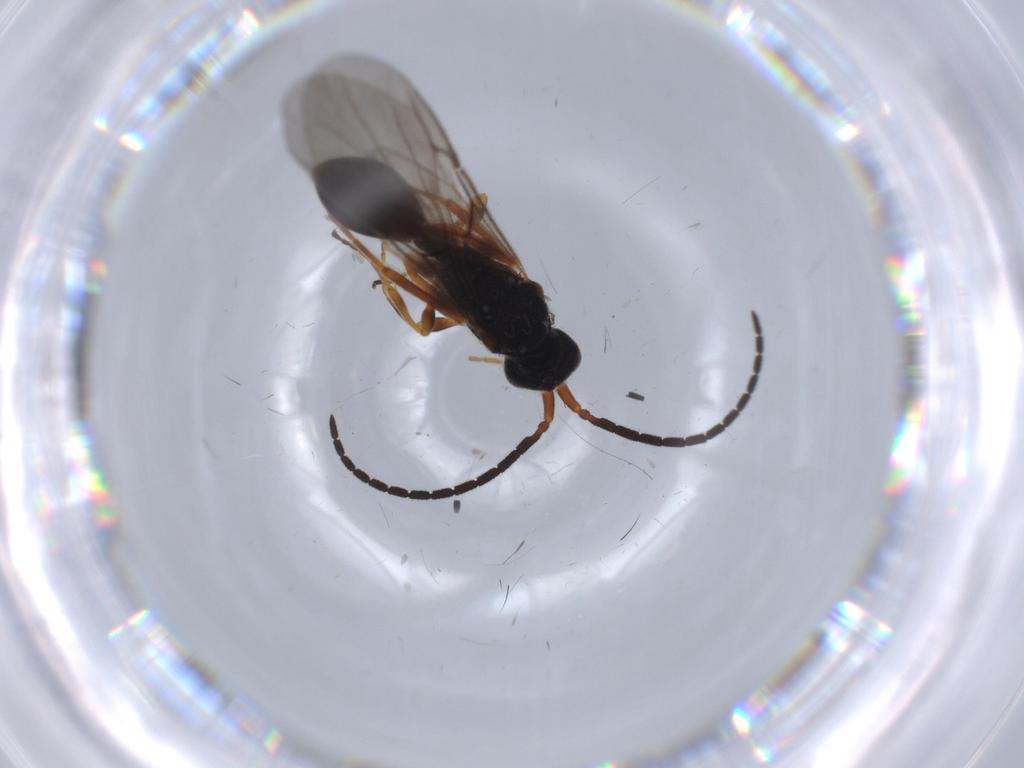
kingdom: Animalia
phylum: Arthropoda
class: Insecta
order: Hymenoptera
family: Diapriidae
